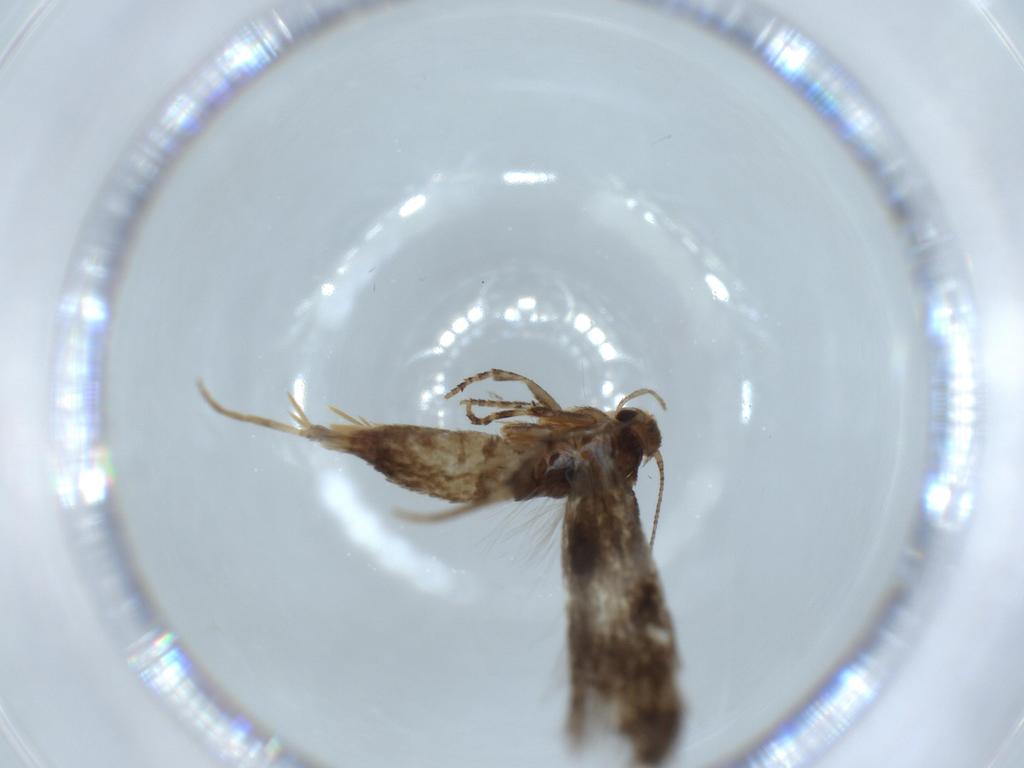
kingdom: Animalia
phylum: Arthropoda
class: Insecta
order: Lepidoptera
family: Elachistidae
